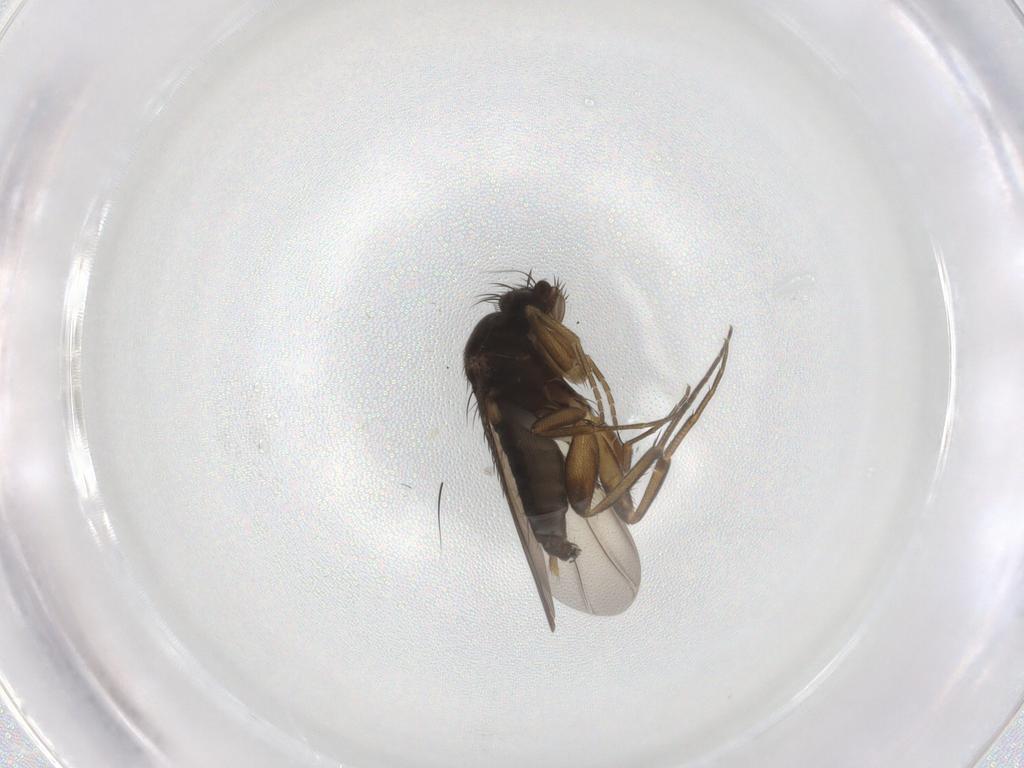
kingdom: Animalia
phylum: Arthropoda
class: Insecta
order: Diptera
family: Phoridae
